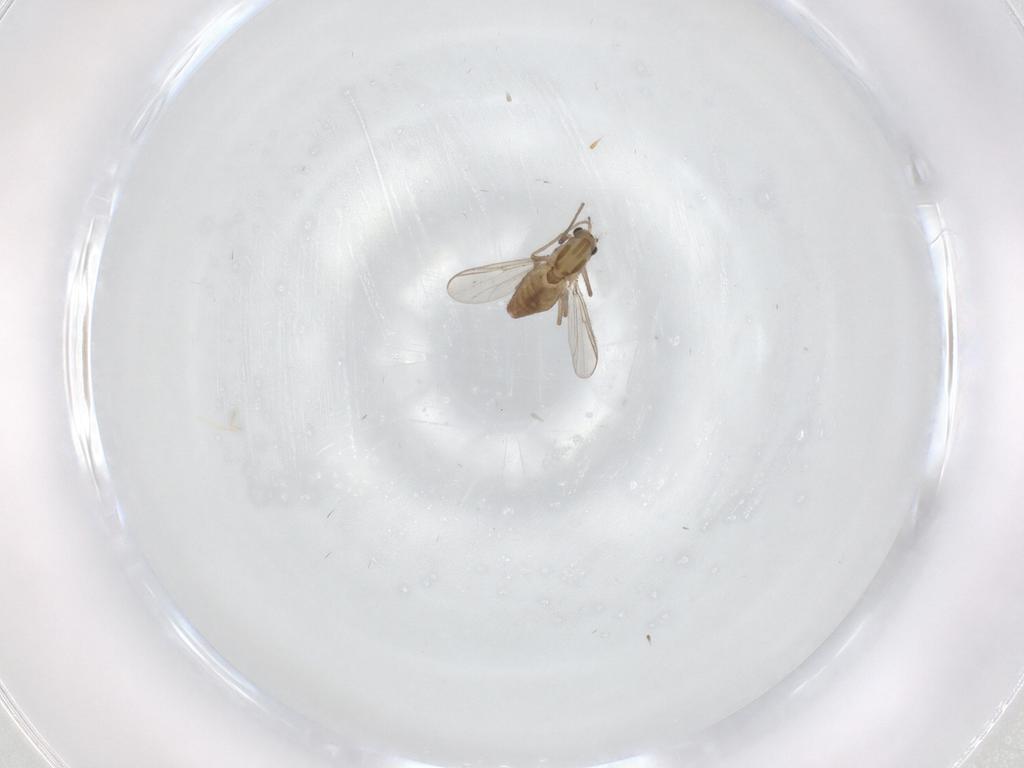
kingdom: Animalia
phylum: Arthropoda
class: Insecta
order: Diptera
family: Chironomidae
